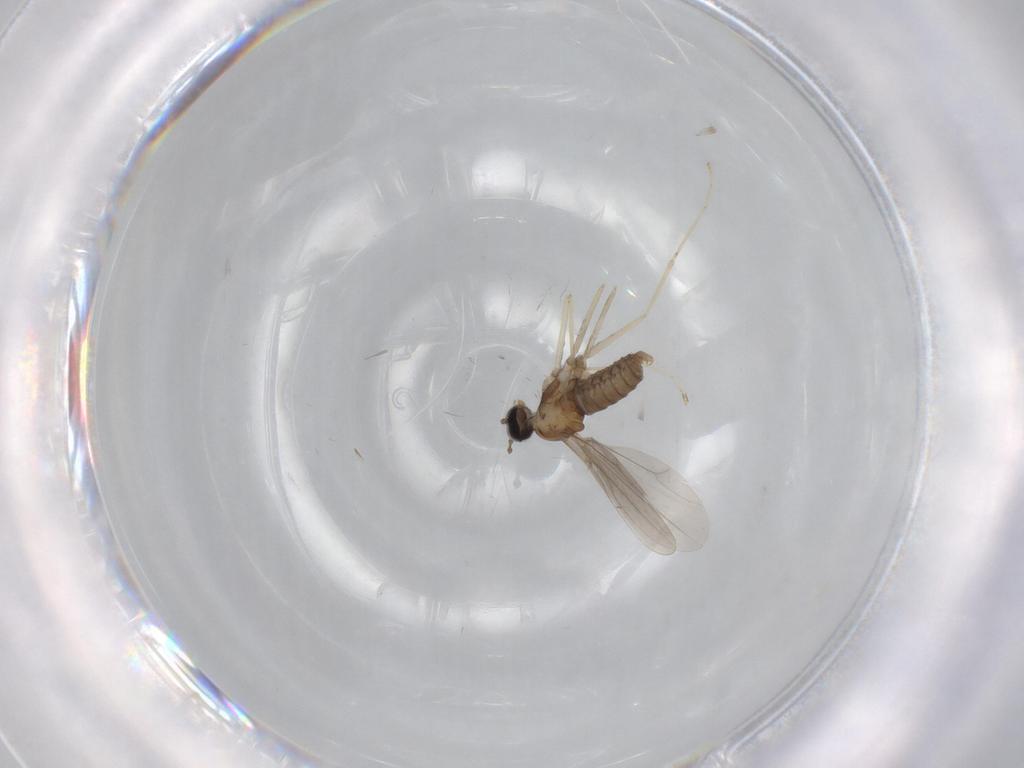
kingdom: Animalia
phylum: Arthropoda
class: Insecta
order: Diptera
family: Cecidomyiidae
